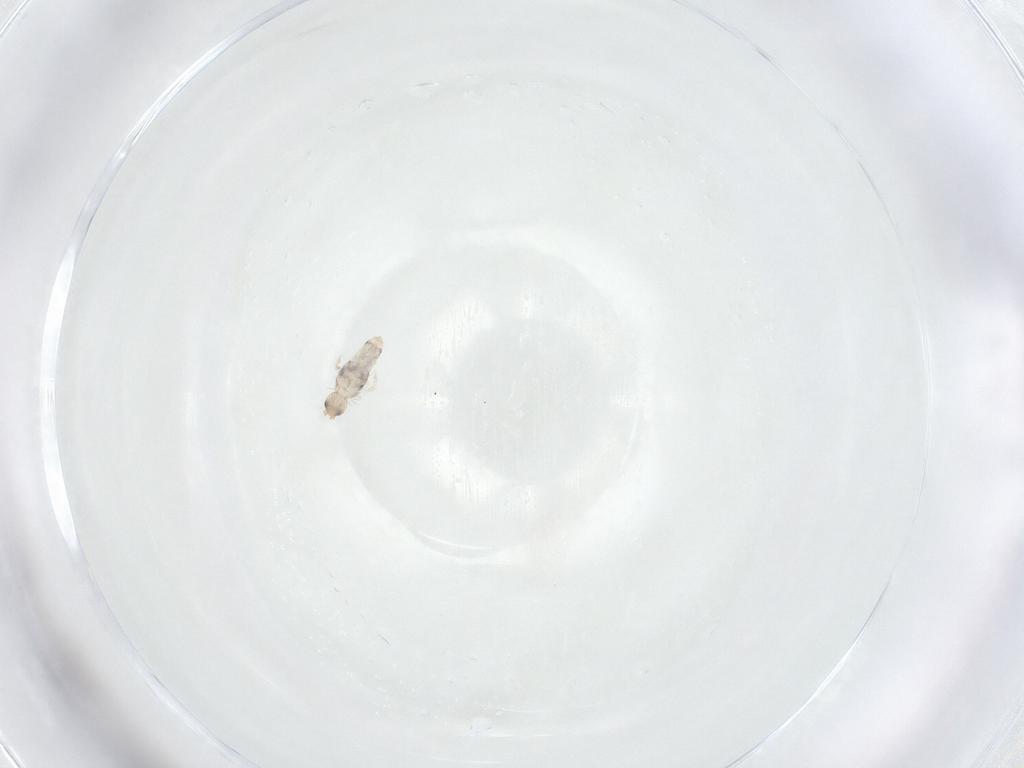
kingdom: Animalia
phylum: Arthropoda
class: Collembola
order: Entomobryomorpha
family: Entomobryidae
